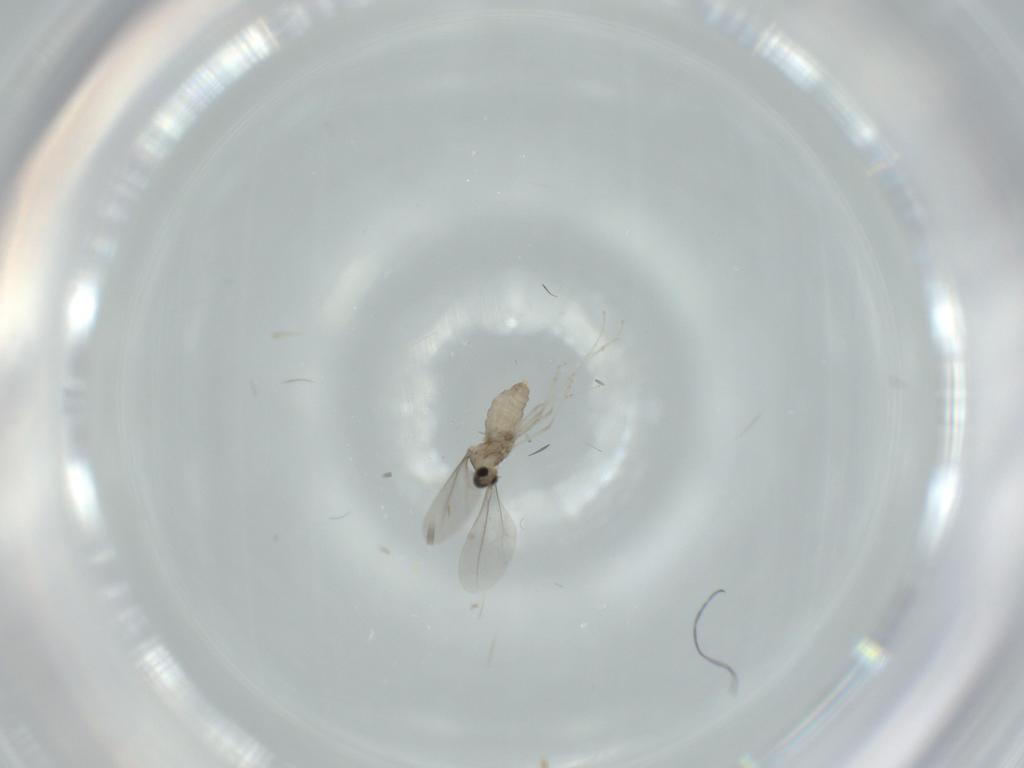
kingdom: Animalia
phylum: Arthropoda
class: Insecta
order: Diptera
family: Cecidomyiidae
